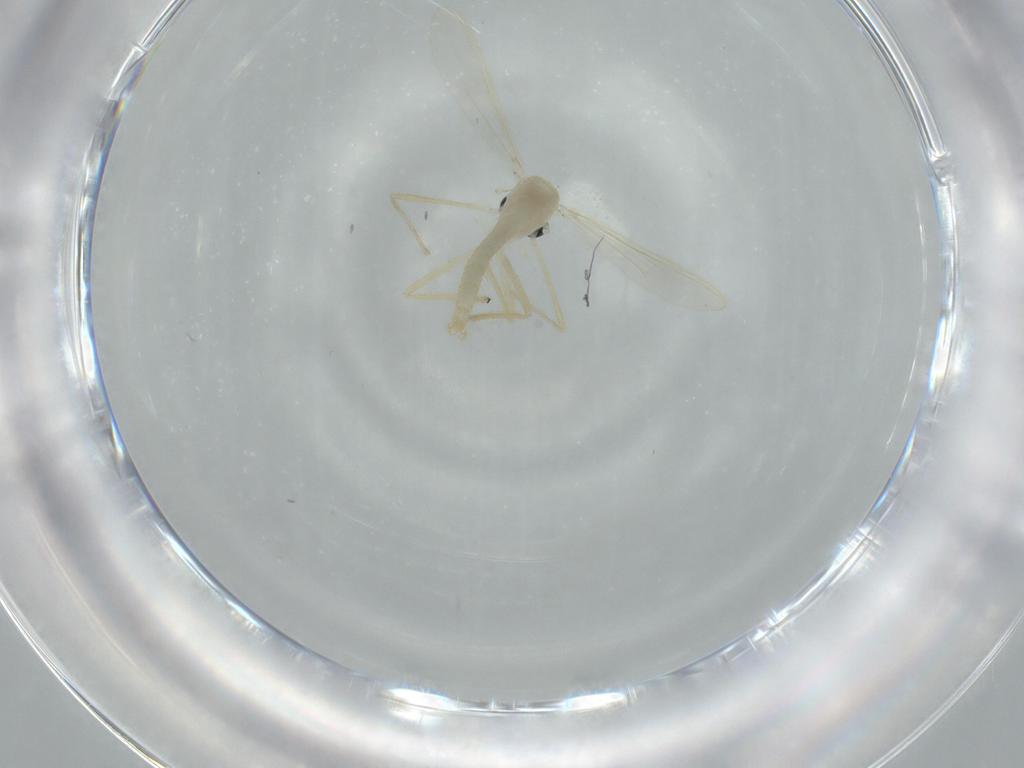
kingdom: Animalia
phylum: Arthropoda
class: Insecta
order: Diptera
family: Chironomidae
